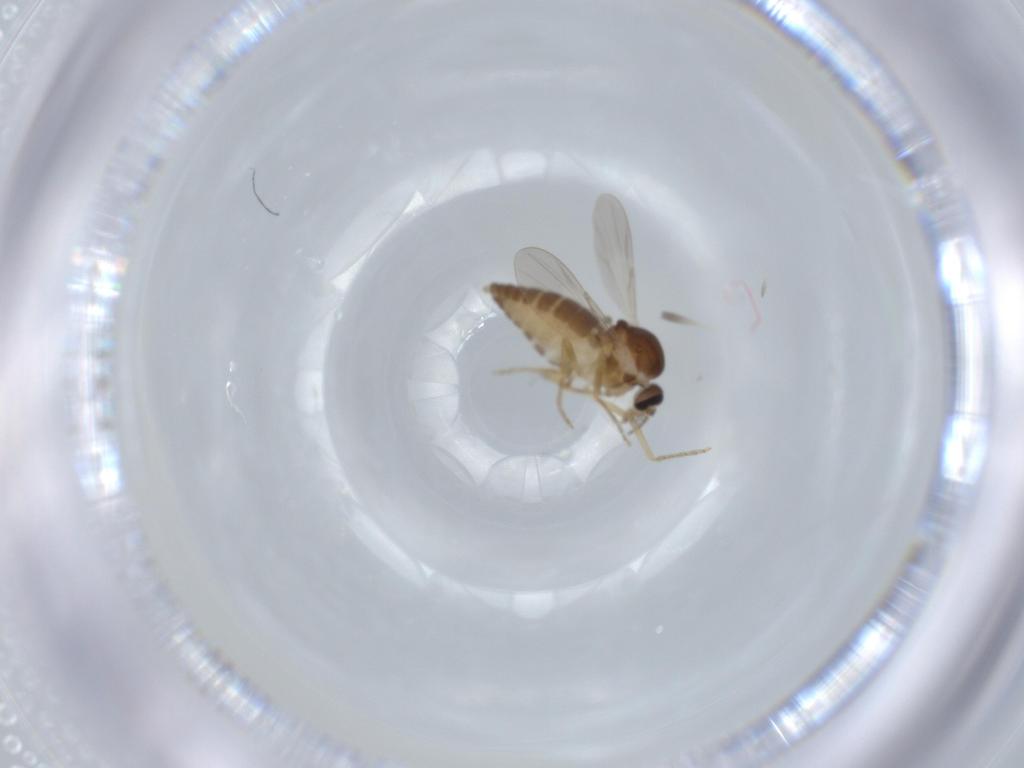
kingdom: Animalia
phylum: Arthropoda
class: Insecta
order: Diptera
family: Ceratopogonidae
